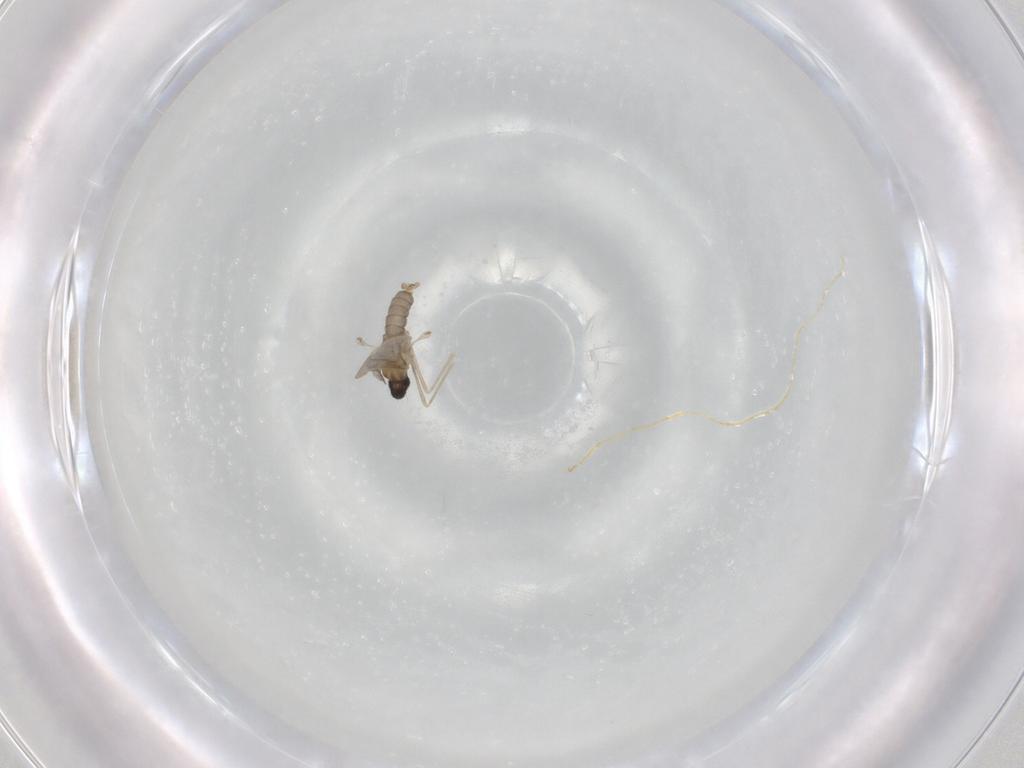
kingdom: Animalia
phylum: Arthropoda
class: Insecta
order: Diptera
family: Cecidomyiidae
